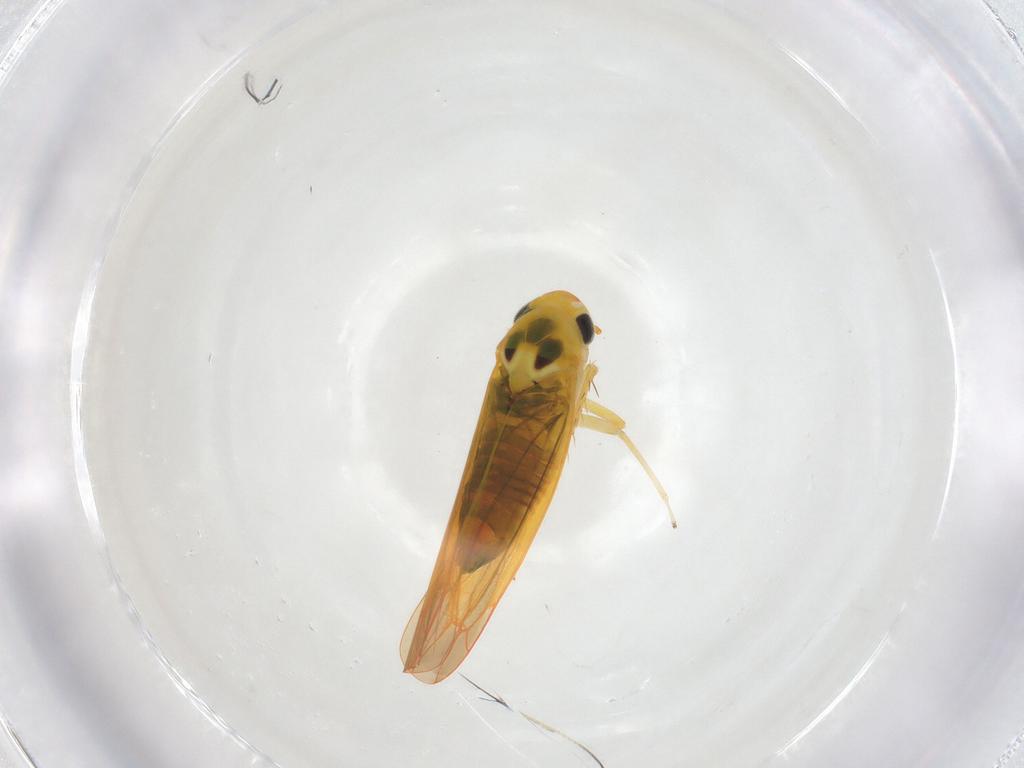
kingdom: Animalia
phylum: Arthropoda
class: Insecta
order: Hemiptera
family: Cicadellidae
